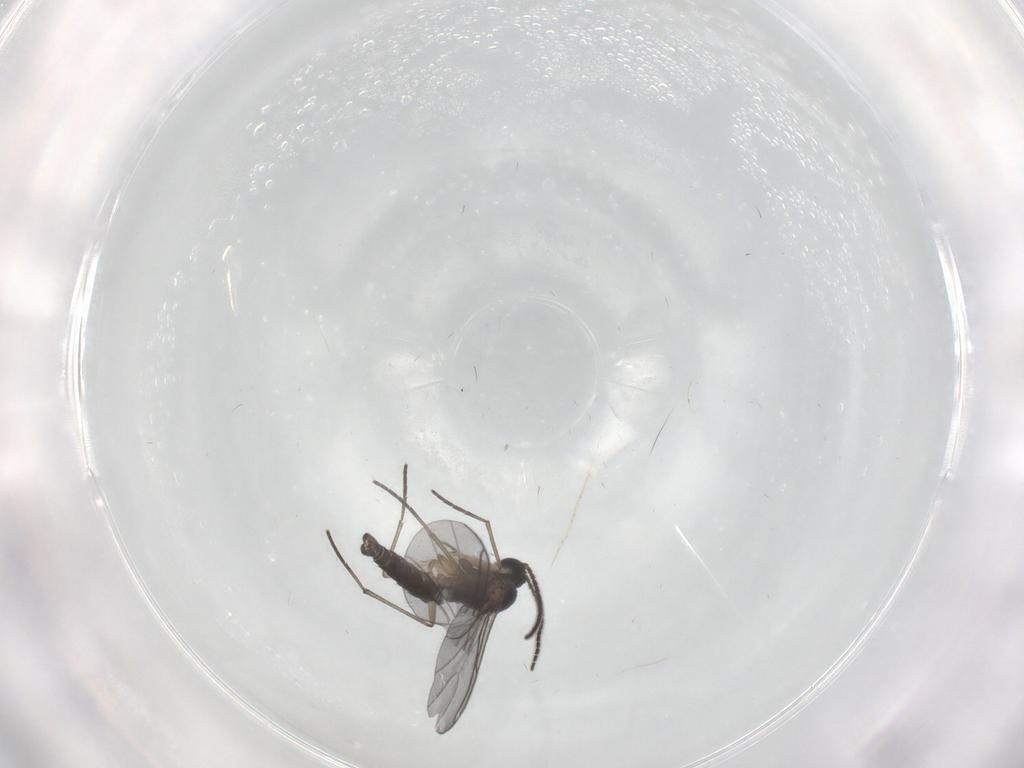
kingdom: Animalia
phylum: Arthropoda
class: Insecta
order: Diptera
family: Sciaridae
